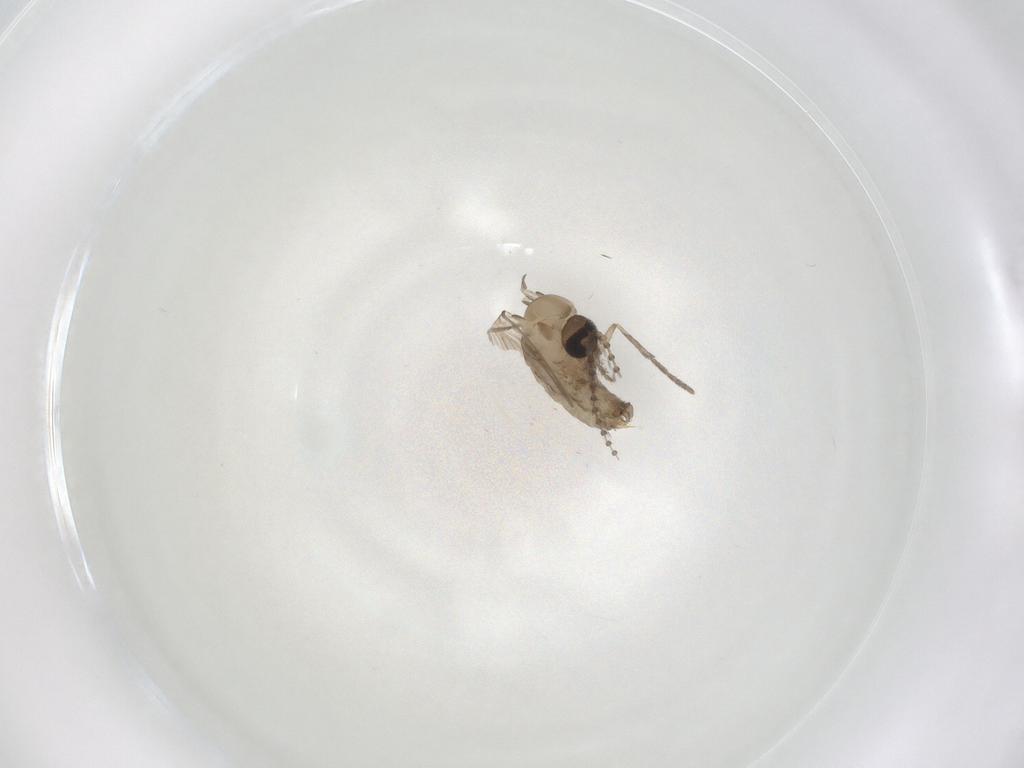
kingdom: Animalia
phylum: Arthropoda
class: Insecta
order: Diptera
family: Psychodidae
